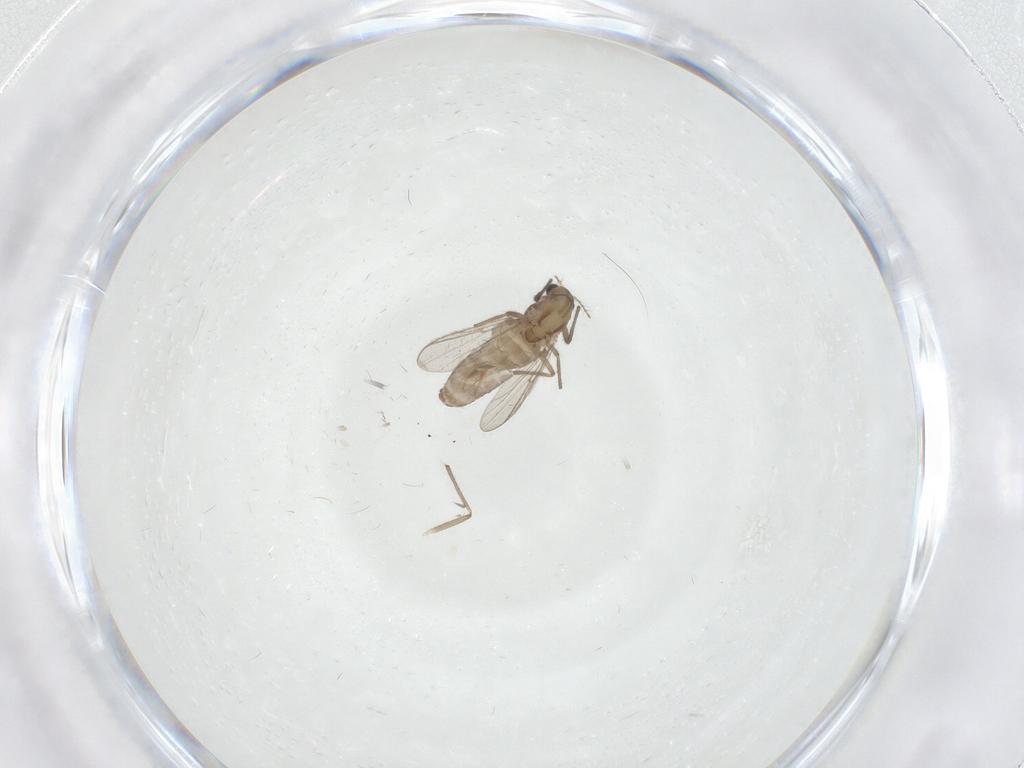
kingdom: Animalia
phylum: Arthropoda
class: Insecta
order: Diptera
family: Chironomidae
